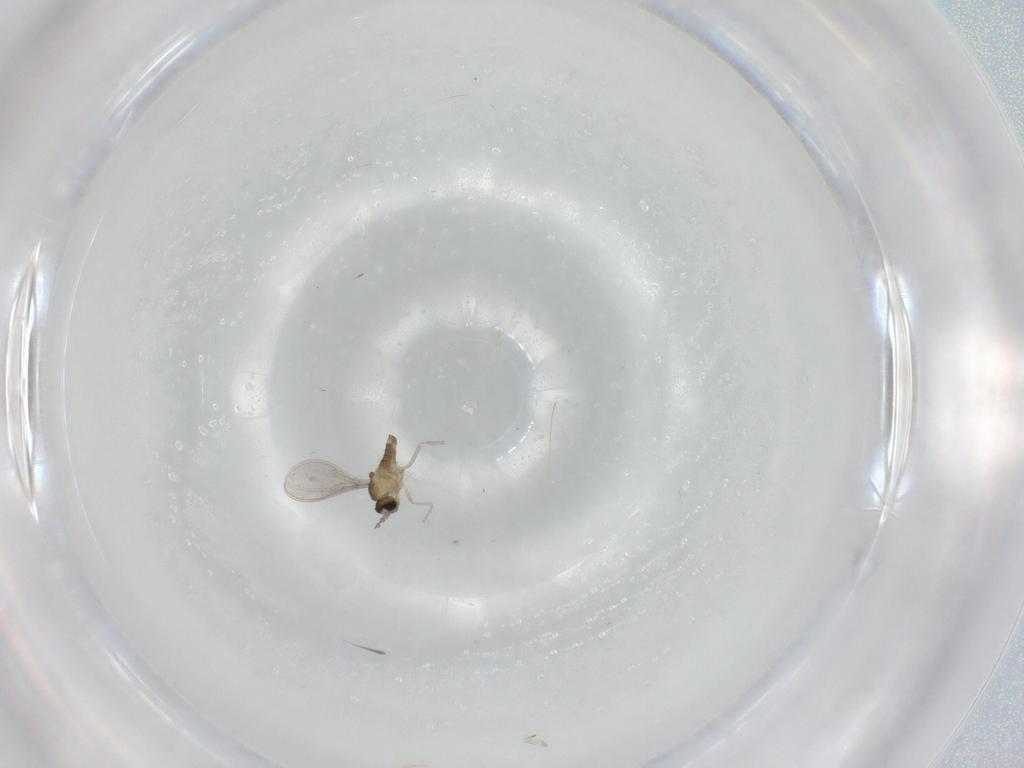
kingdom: Animalia
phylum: Arthropoda
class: Insecta
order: Diptera
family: Cecidomyiidae
